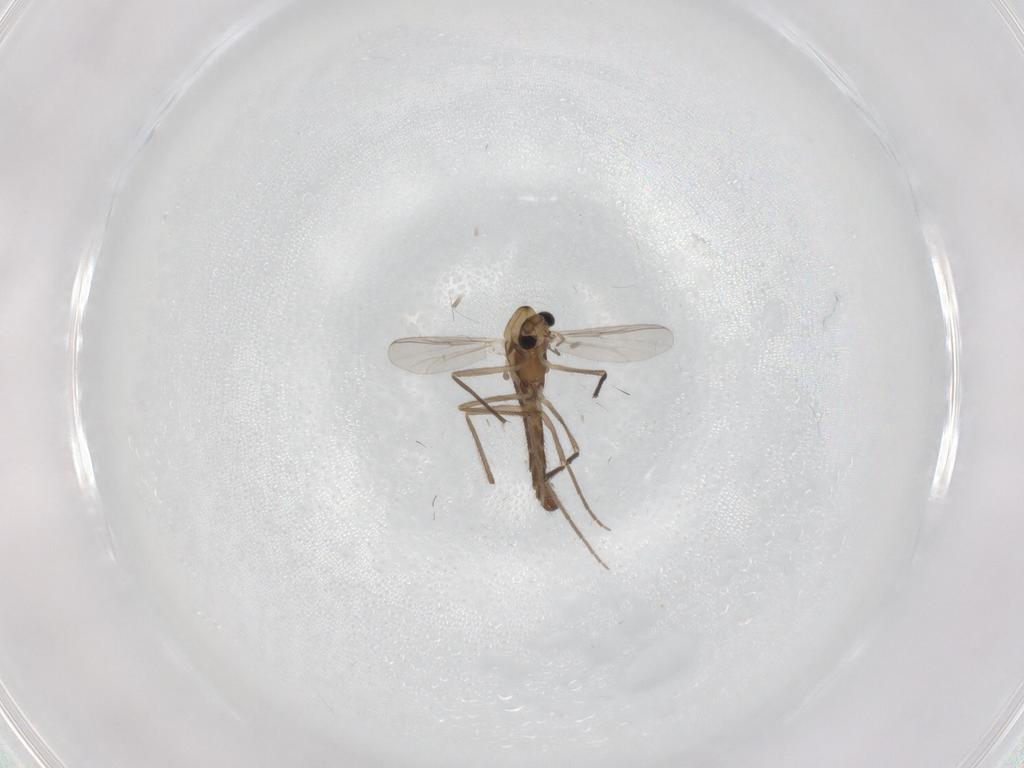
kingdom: Animalia
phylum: Arthropoda
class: Insecta
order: Diptera
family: Chironomidae
